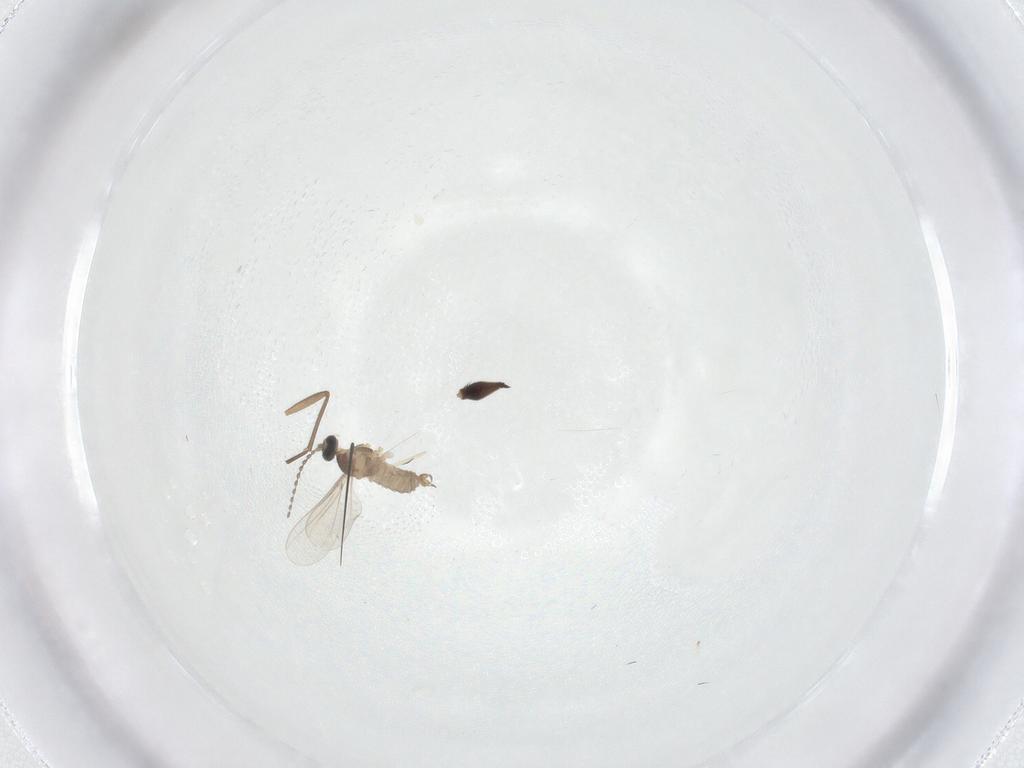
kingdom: Animalia
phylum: Arthropoda
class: Insecta
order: Diptera
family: Cecidomyiidae
